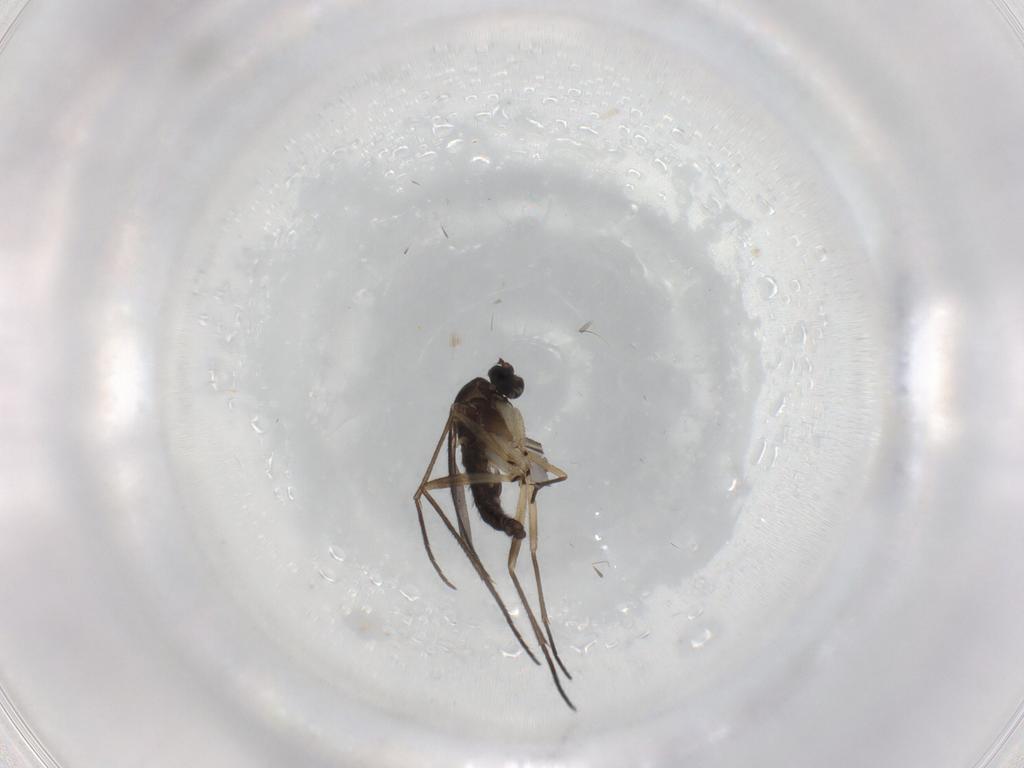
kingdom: Animalia
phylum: Arthropoda
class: Insecta
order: Diptera
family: Sciaridae
